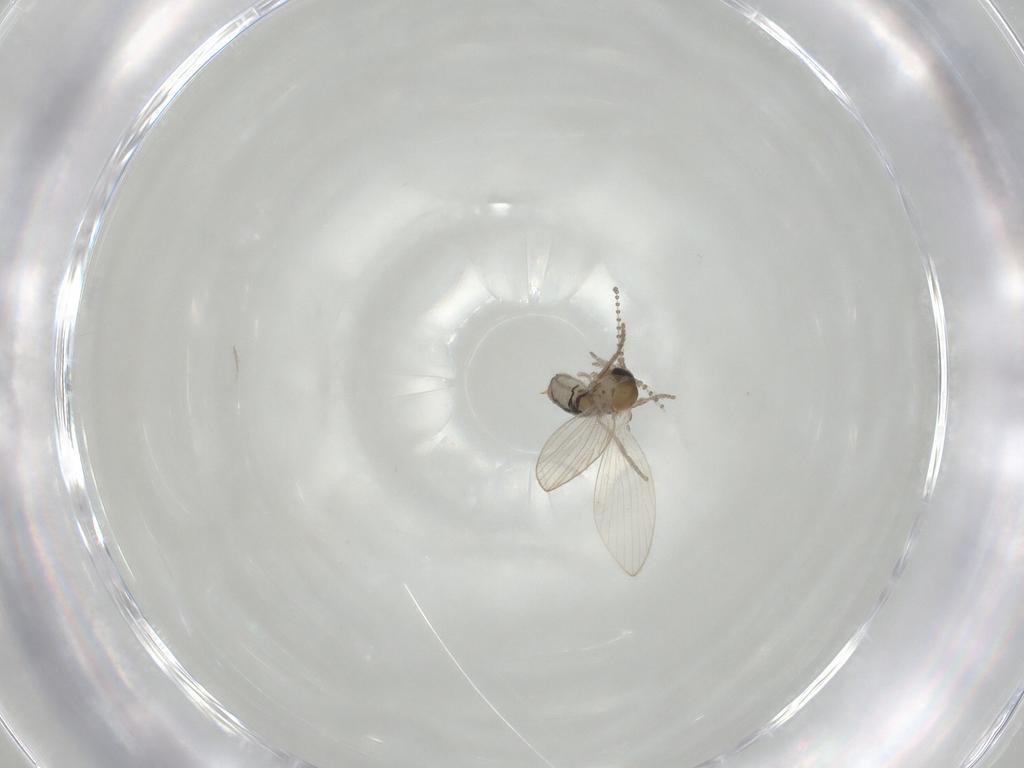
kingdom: Animalia
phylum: Arthropoda
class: Insecta
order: Diptera
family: Psychodidae
